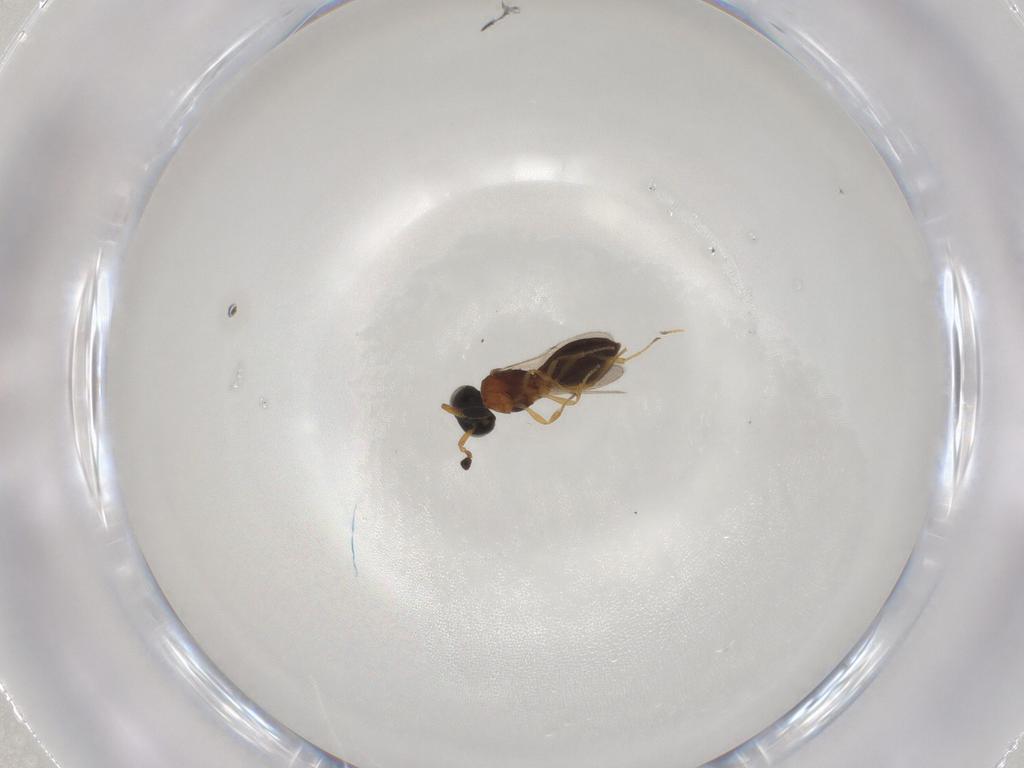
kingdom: Animalia
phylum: Arthropoda
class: Insecta
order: Hymenoptera
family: Scelionidae
